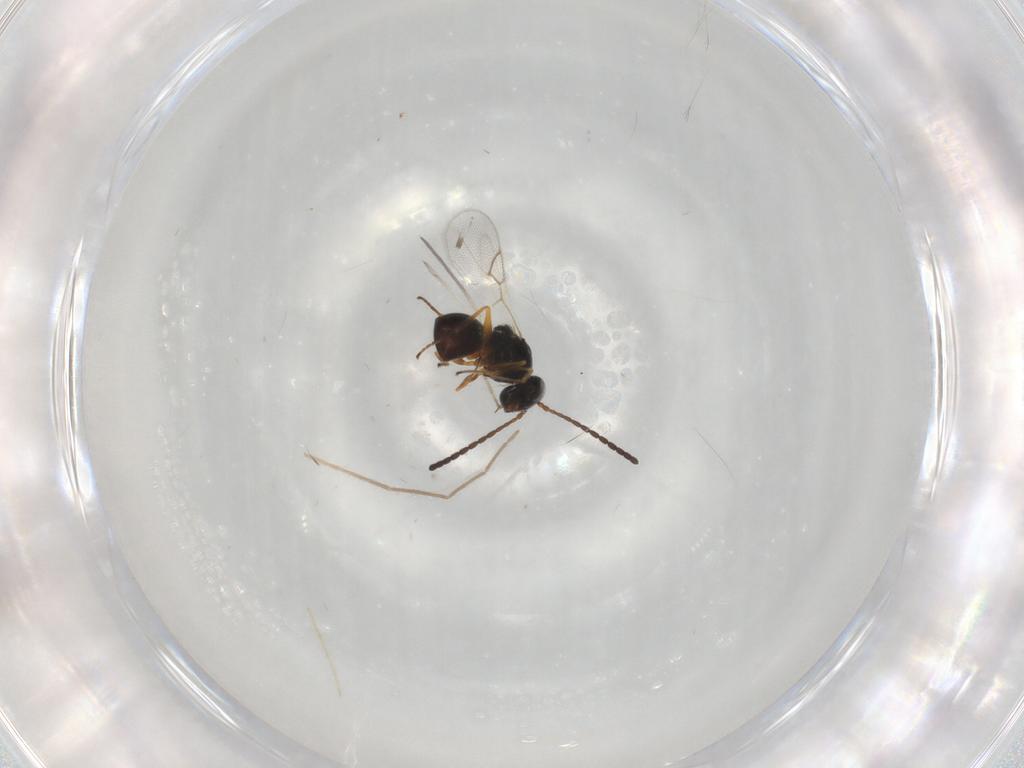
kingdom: Animalia
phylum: Arthropoda
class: Insecta
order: Hymenoptera
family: Figitidae
